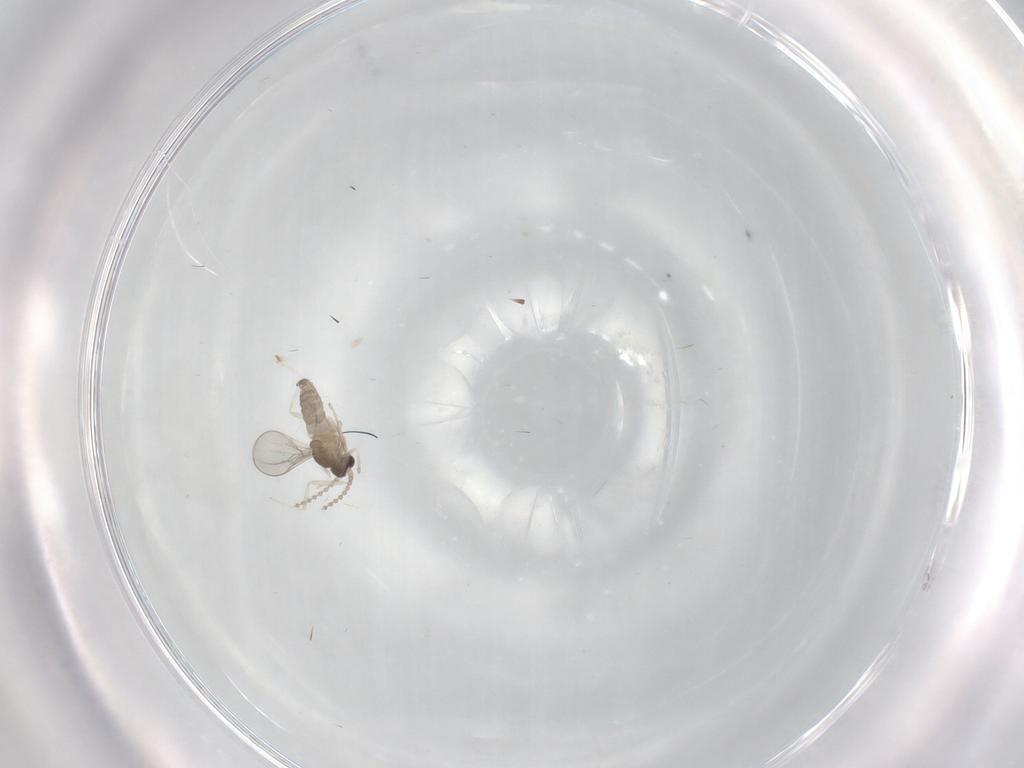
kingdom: Animalia
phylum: Arthropoda
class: Insecta
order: Diptera
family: Cecidomyiidae
